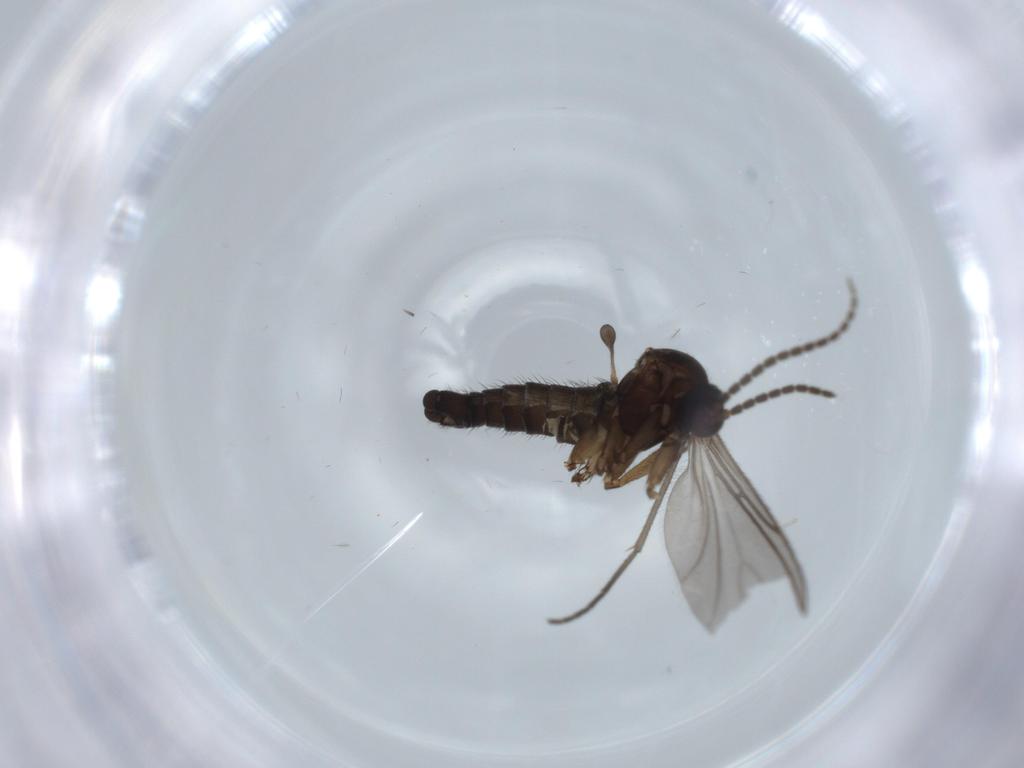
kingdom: Animalia
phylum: Arthropoda
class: Insecta
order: Diptera
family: Sciaridae
